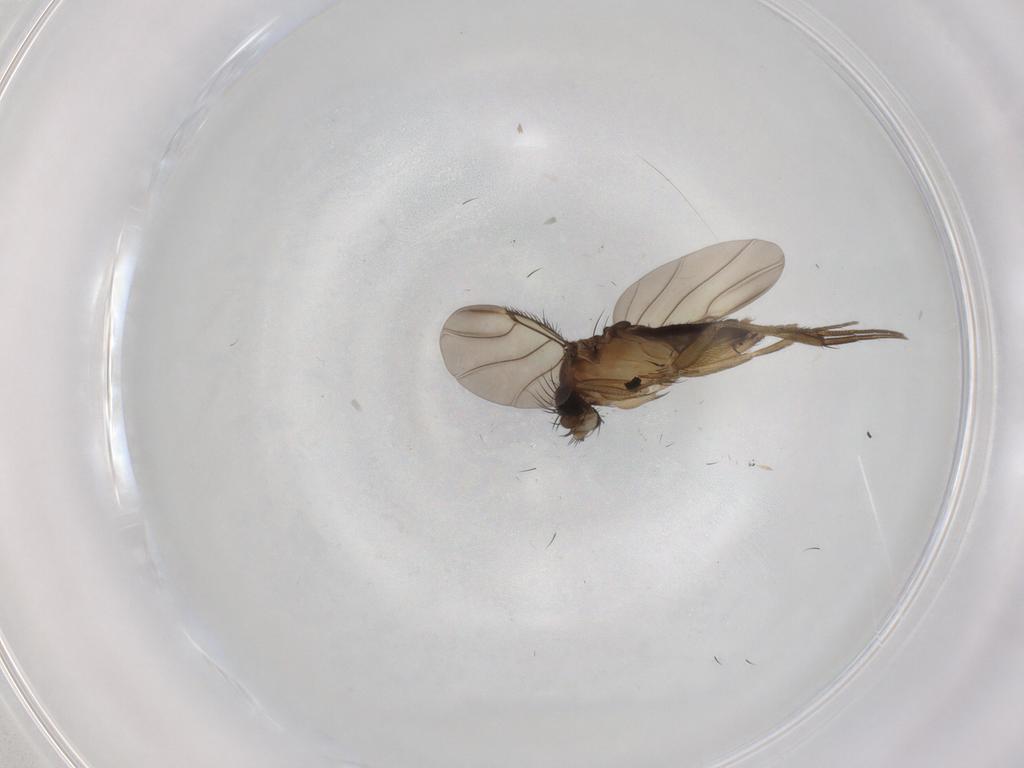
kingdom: Animalia
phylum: Arthropoda
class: Insecta
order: Diptera
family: Phoridae
